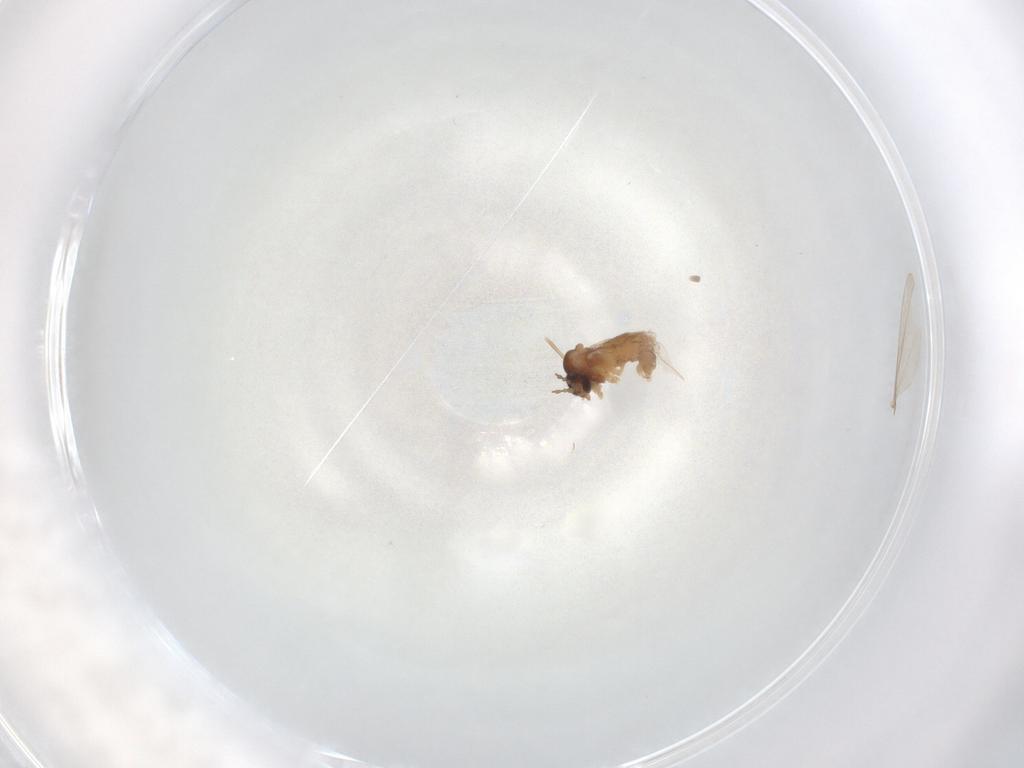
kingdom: Animalia
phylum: Arthropoda
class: Insecta
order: Diptera
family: Cecidomyiidae
